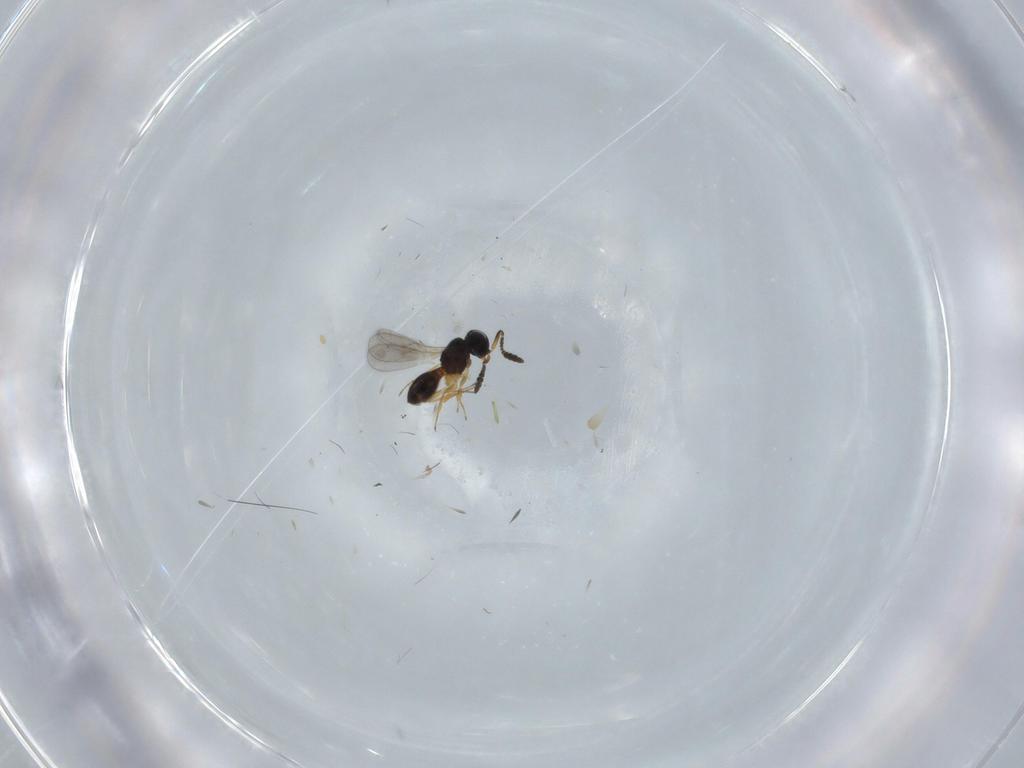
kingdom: Animalia
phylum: Arthropoda
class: Insecta
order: Hymenoptera
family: Scelionidae
